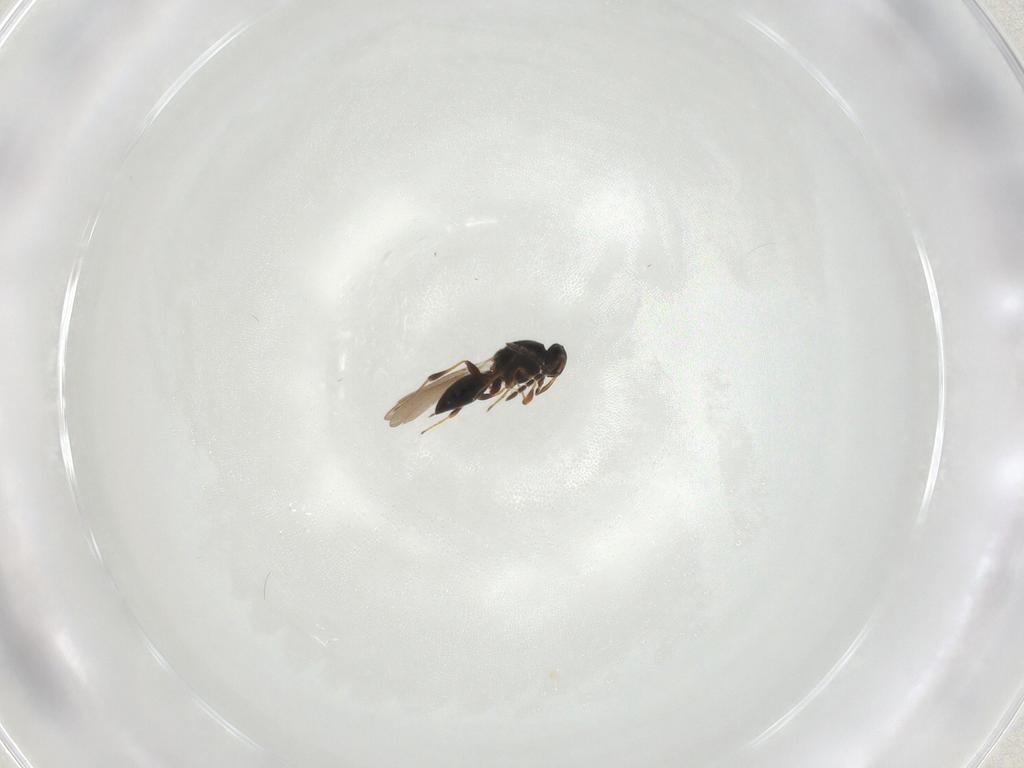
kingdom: Animalia
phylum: Arthropoda
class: Insecta
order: Hymenoptera
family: Platygastridae
